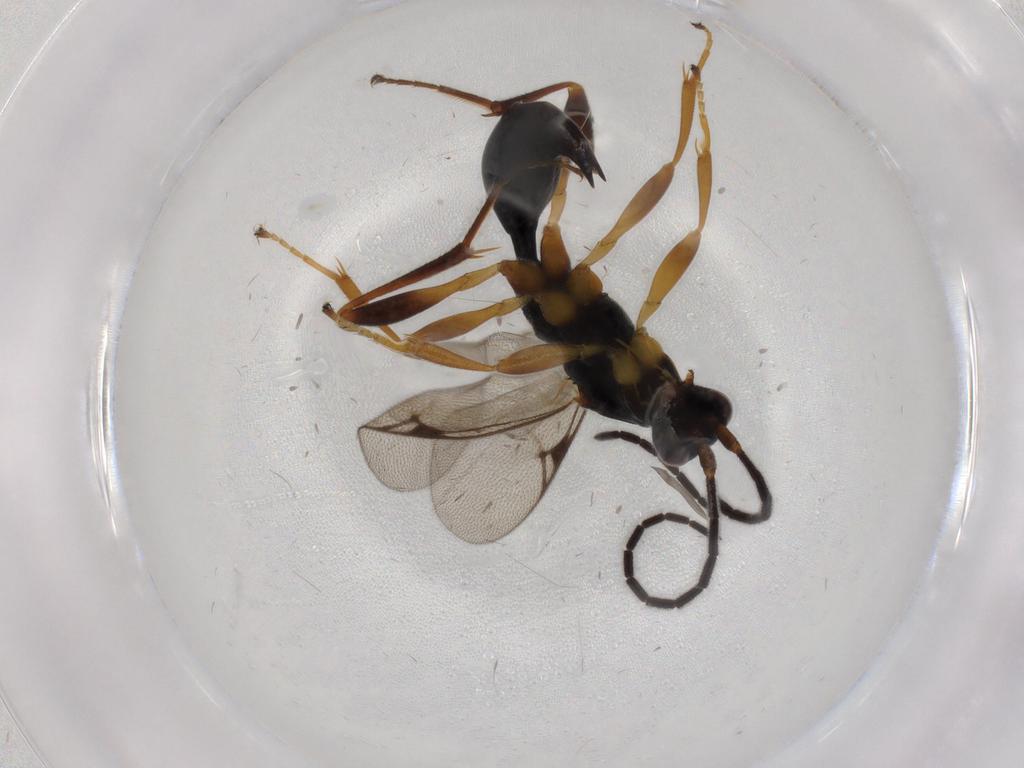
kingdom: Animalia
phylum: Arthropoda
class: Insecta
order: Hymenoptera
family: Proctotrupidae
